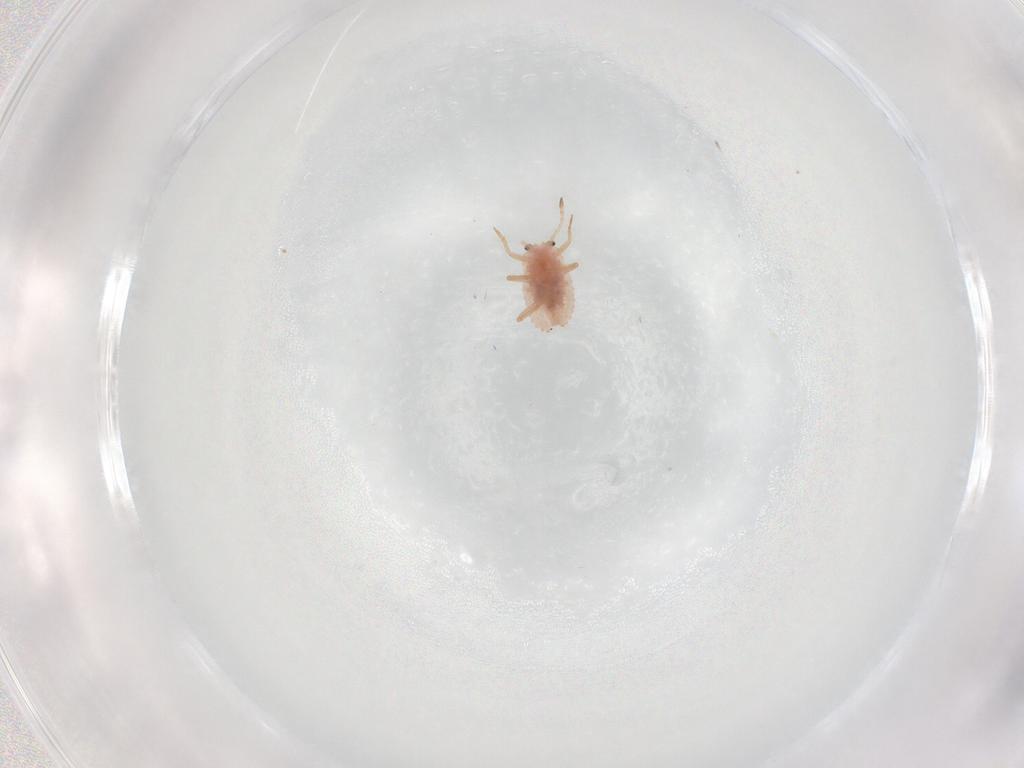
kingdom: Animalia
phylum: Arthropoda
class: Insecta
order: Hemiptera
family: Coccoidea_incertae_sedis
